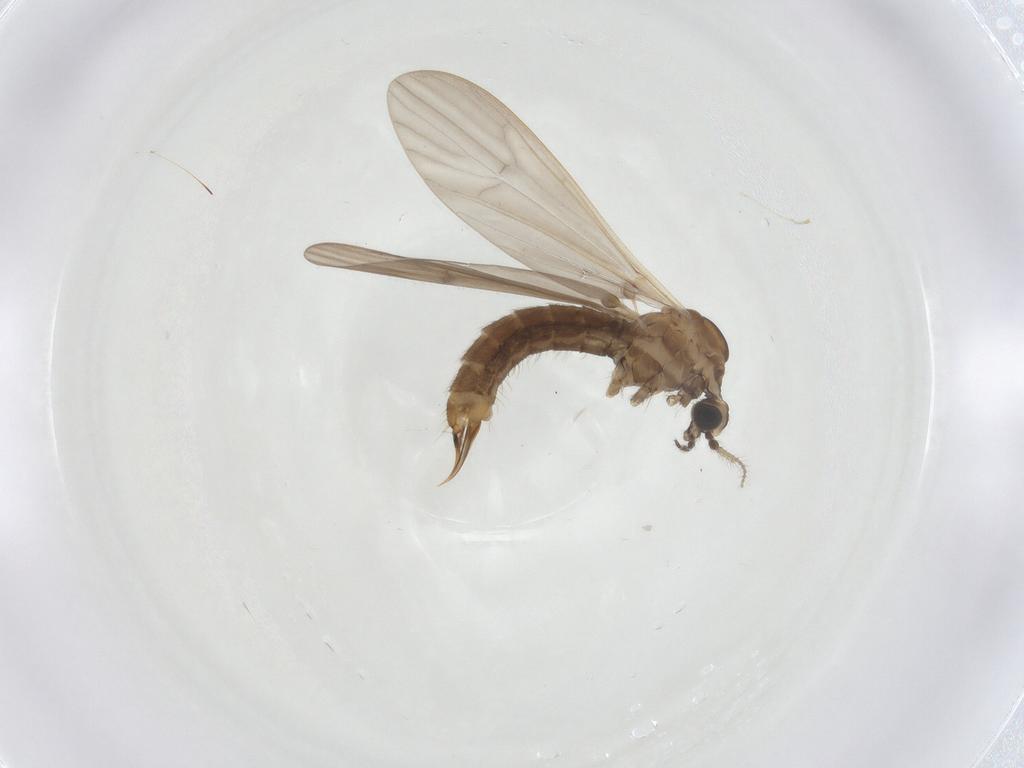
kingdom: Animalia
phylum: Arthropoda
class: Insecta
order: Diptera
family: Limoniidae
